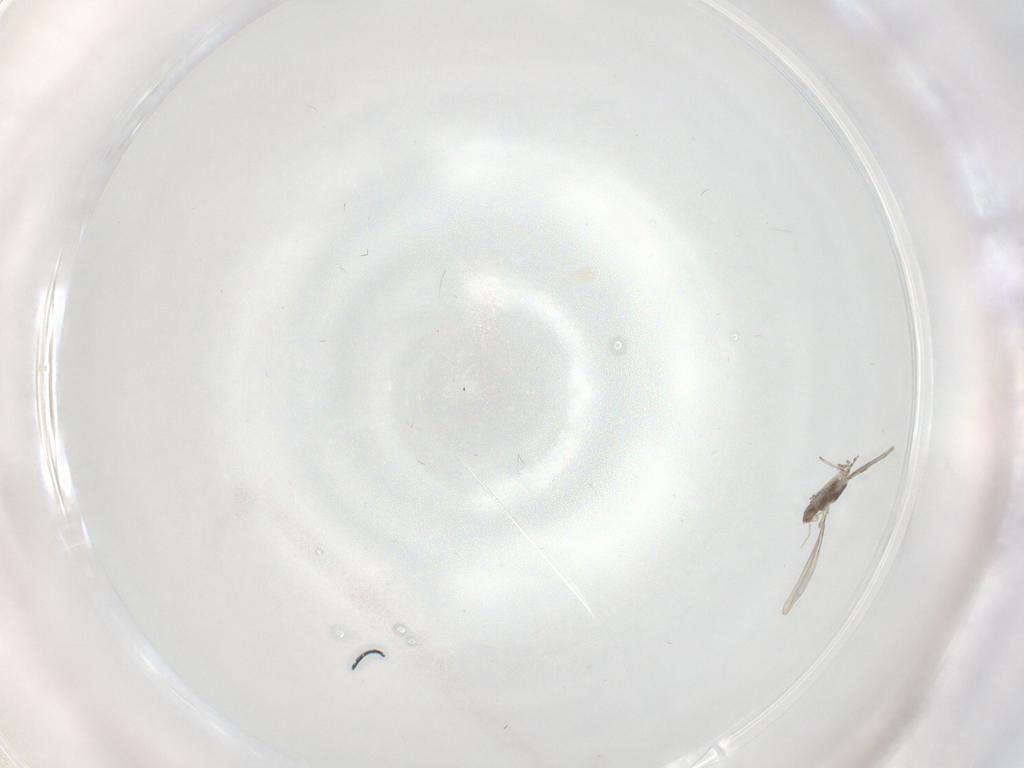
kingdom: Animalia
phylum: Arthropoda
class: Insecta
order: Diptera
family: Cecidomyiidae
